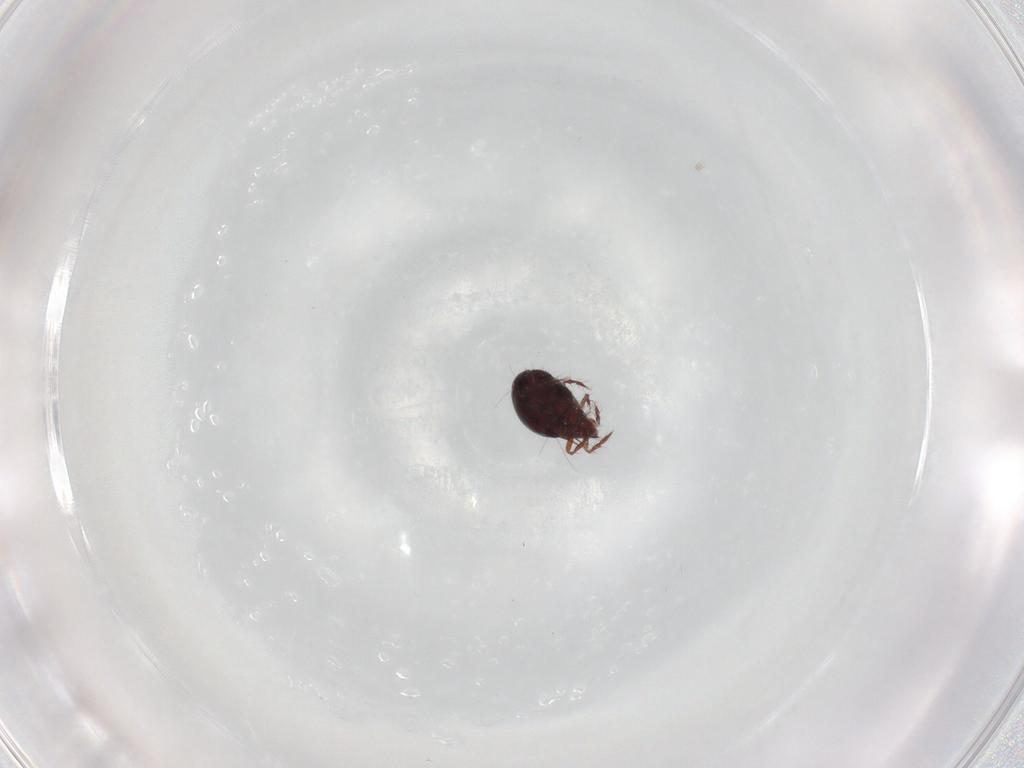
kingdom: Animalia
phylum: Arthropoda
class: Arachnida
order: Sarcoptiformes
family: Ceratoppiidae
